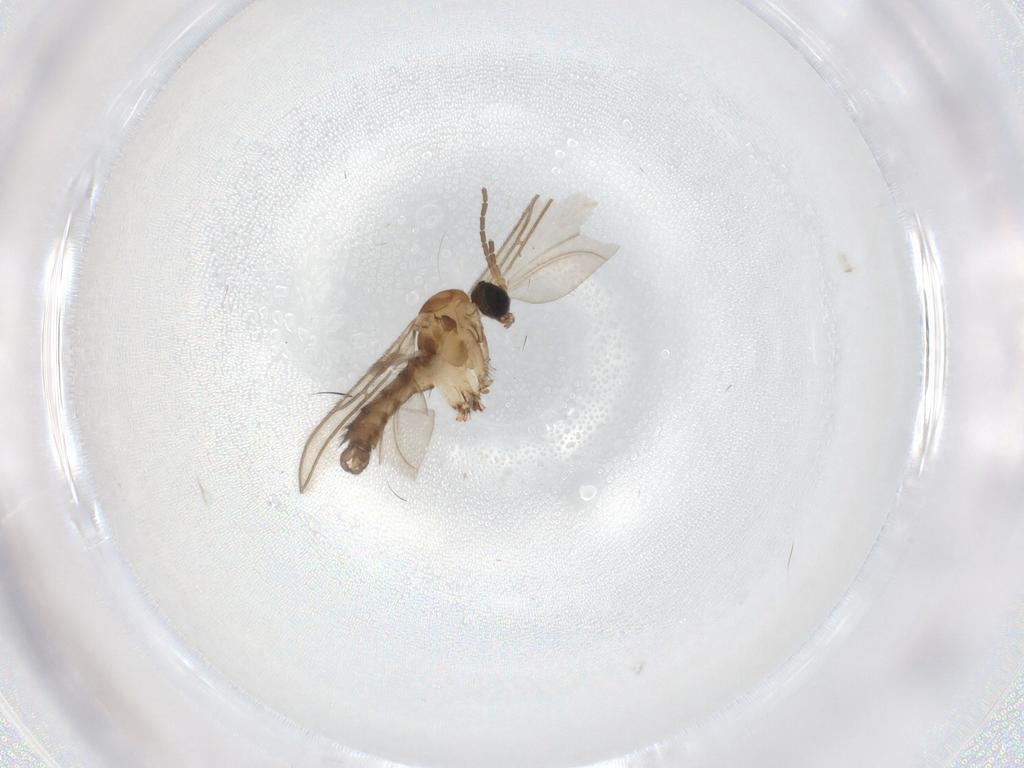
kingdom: Animalia
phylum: Arthropoda
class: Insecta
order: Diptera
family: Sciaridae
